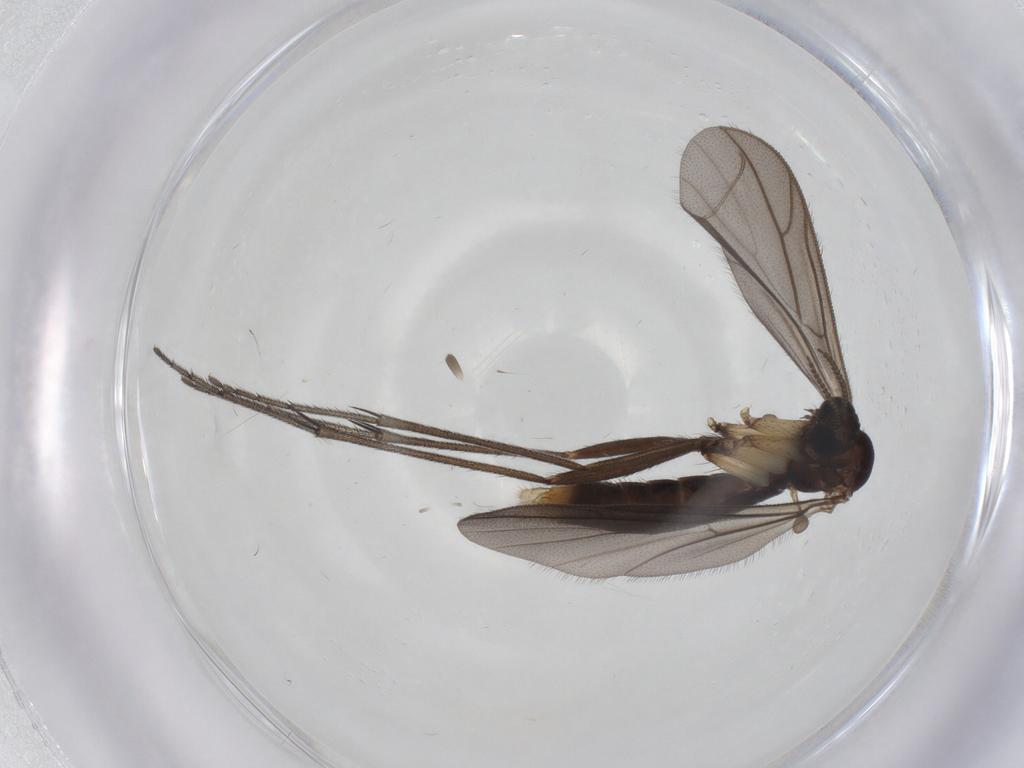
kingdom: Animalia
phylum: Arthropoda
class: Insecta
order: Diptera
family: Ditomyiidae
